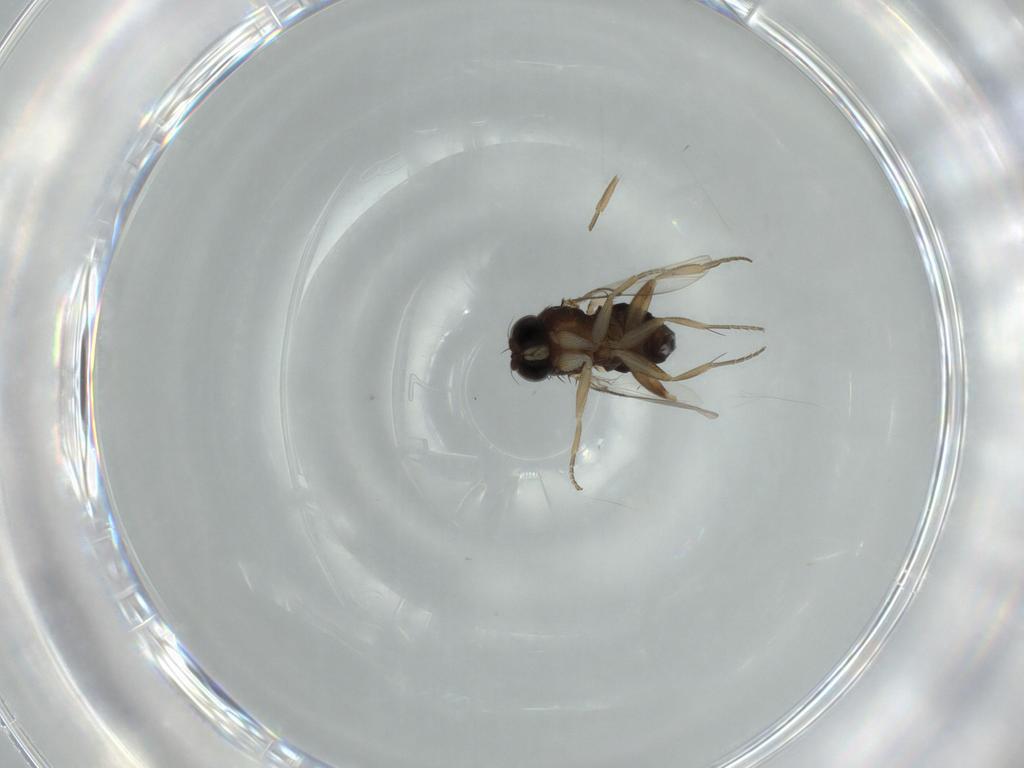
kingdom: Animalia
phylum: Arthropoda
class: Insecta
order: Diptera
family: Phoridae
